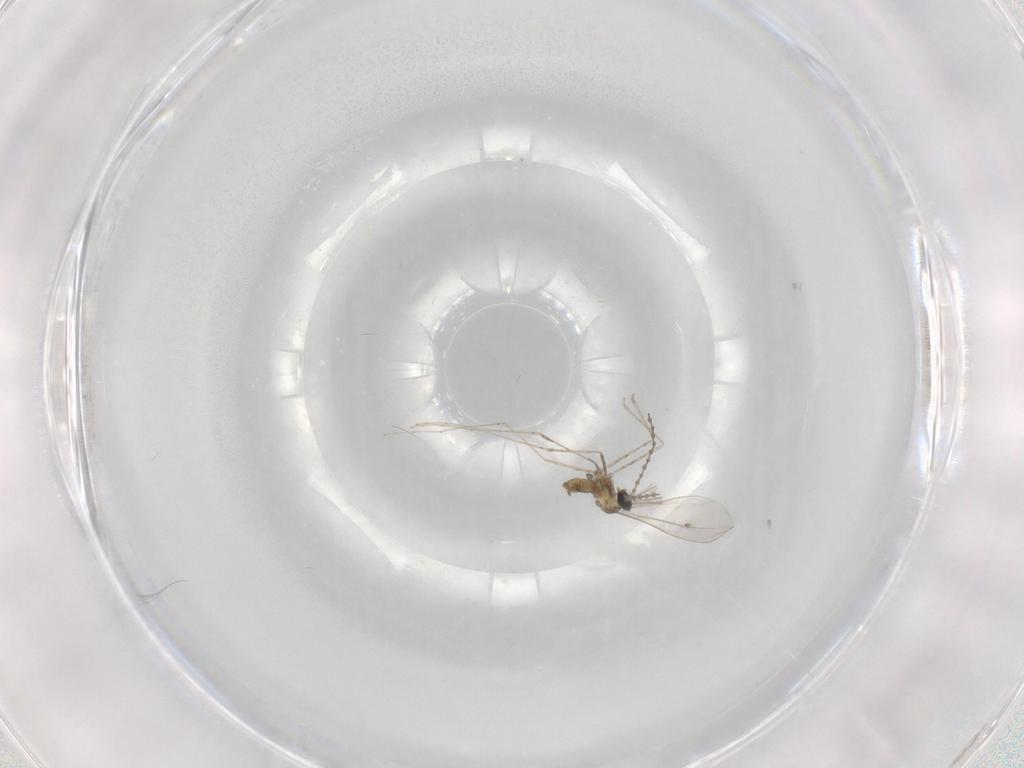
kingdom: Animalia
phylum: Arthropoda
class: Insecta
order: Diptera
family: Cecidomyiidae
